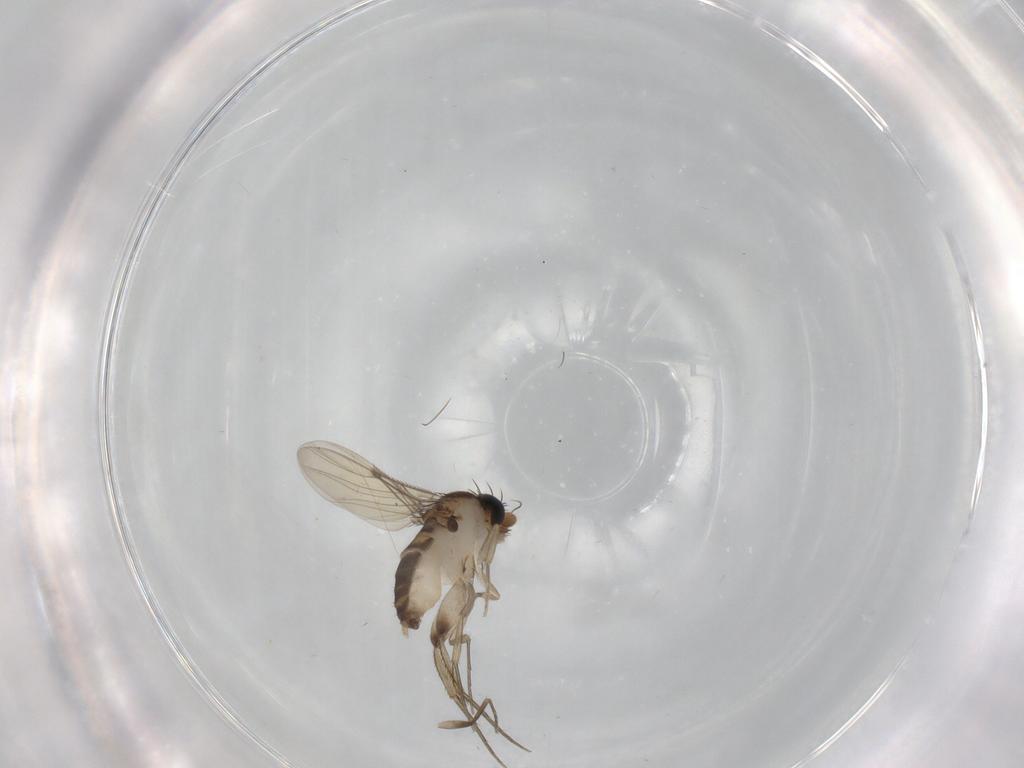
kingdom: Animalia
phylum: Arthropoda
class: Insecta
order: Diptera
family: Phoridae
